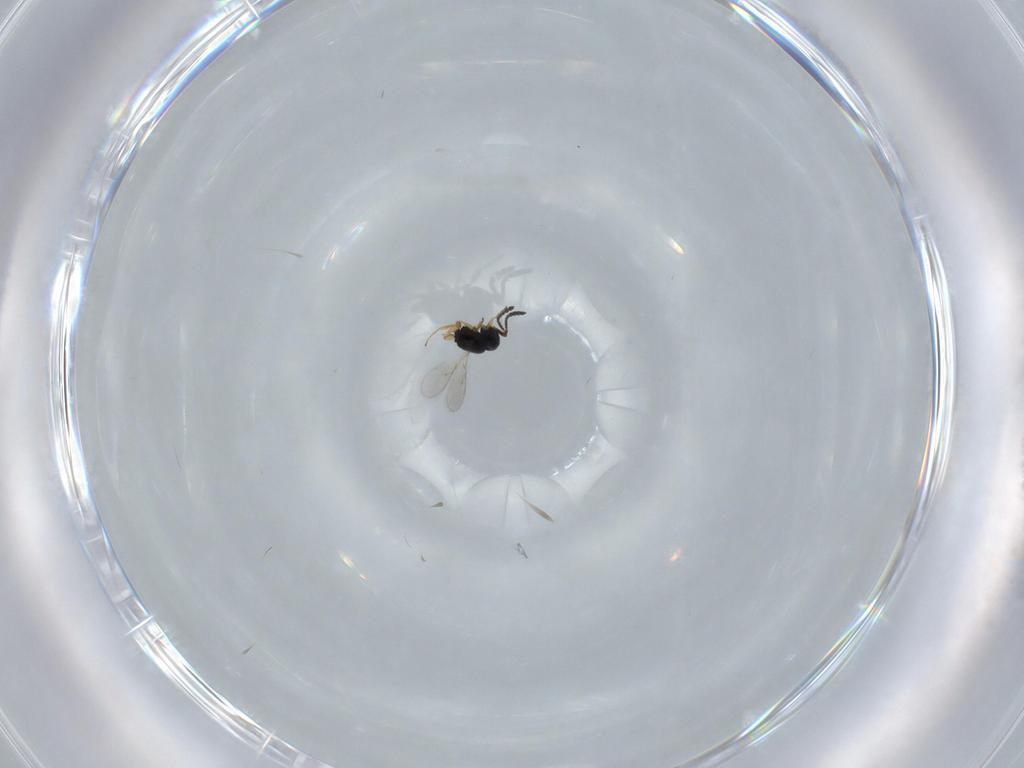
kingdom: Animalia
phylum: Arthropoda
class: Insecta
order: Hymenoptera
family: Scelionidae
